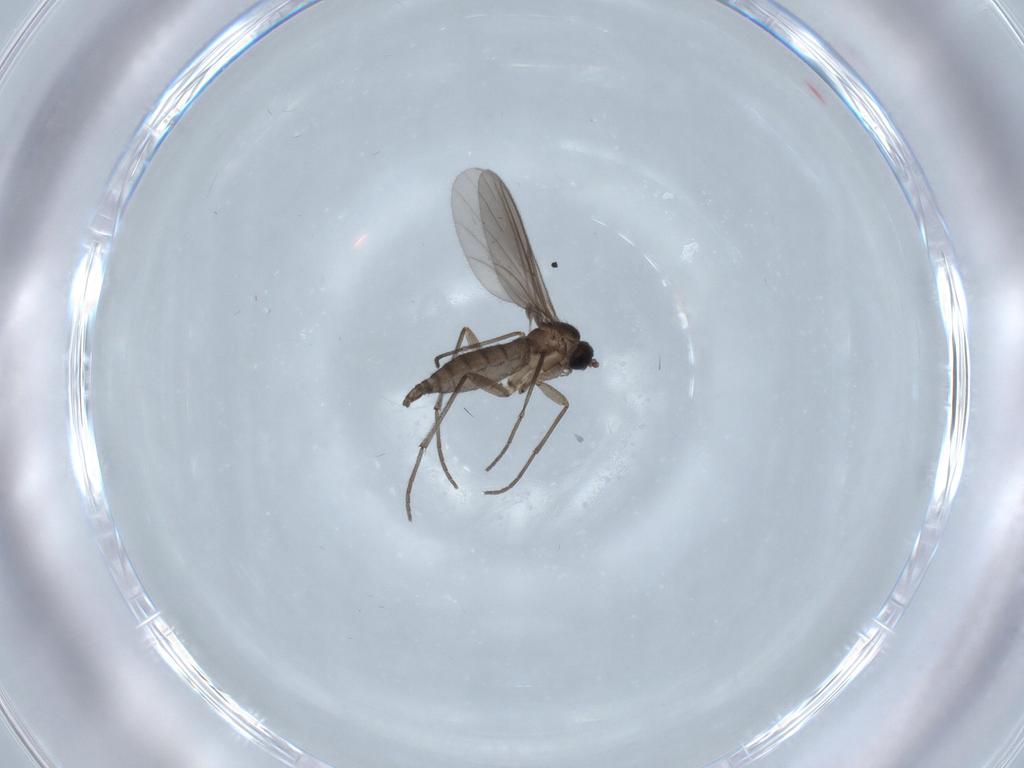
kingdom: Animalia
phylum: Arthropoda
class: Insecta
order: Diptera
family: Sciaridae
